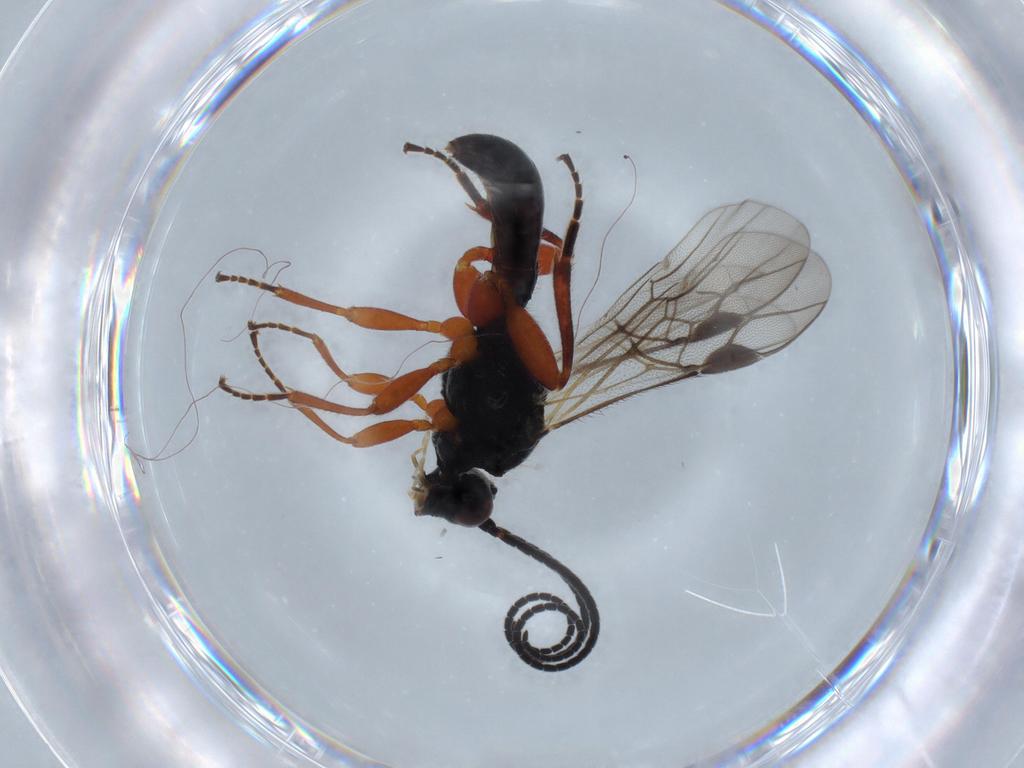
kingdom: Animalia
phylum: Arthropoda
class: Insecta
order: Hymenoptera
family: Braconidae
